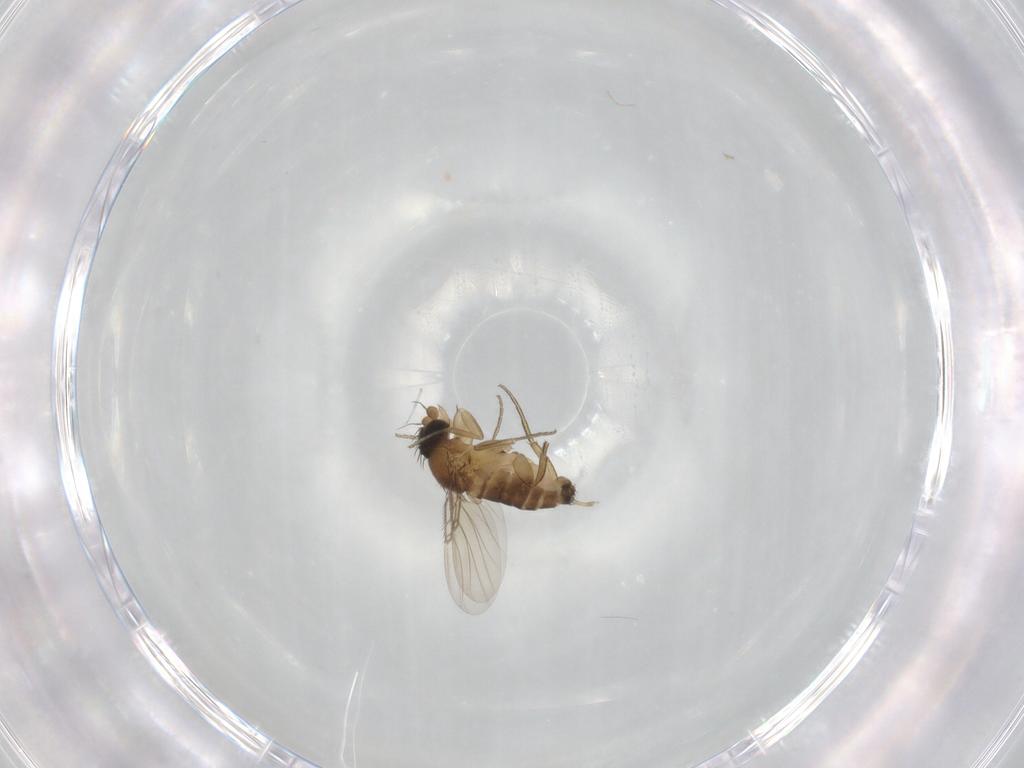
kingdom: Animalia
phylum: Arthropoda
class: Insecta
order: Diptera
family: Phoridae
